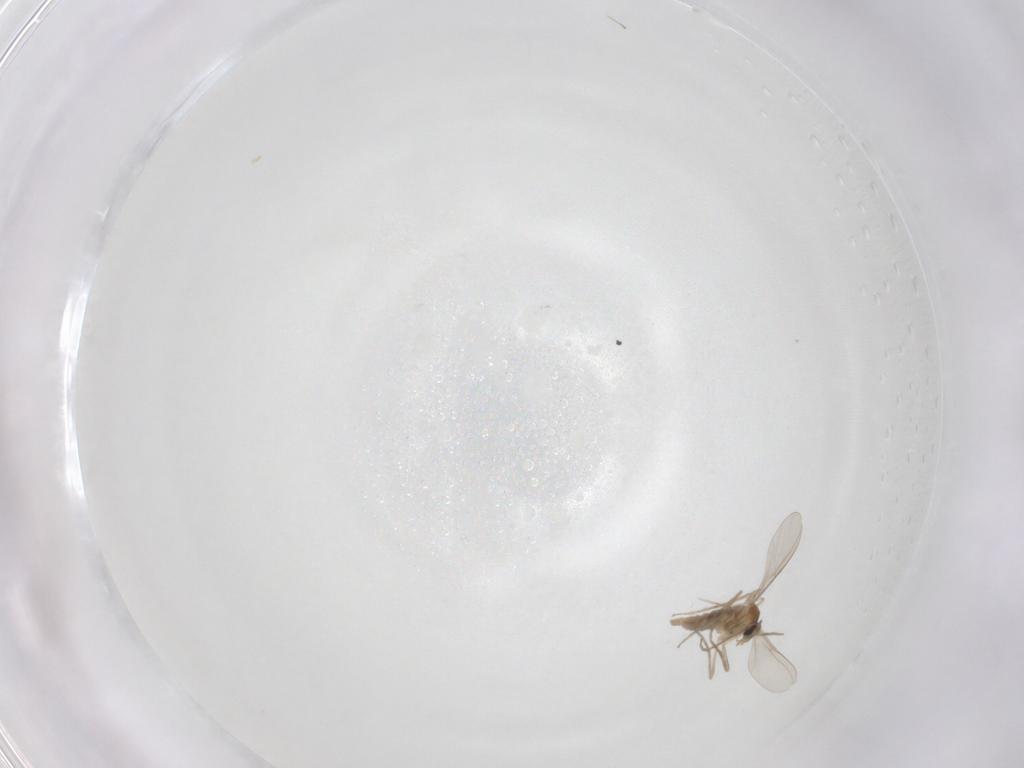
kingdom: Animalia
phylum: Arthropoda
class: Insecta
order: Diptera
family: Cecidomyiidae
